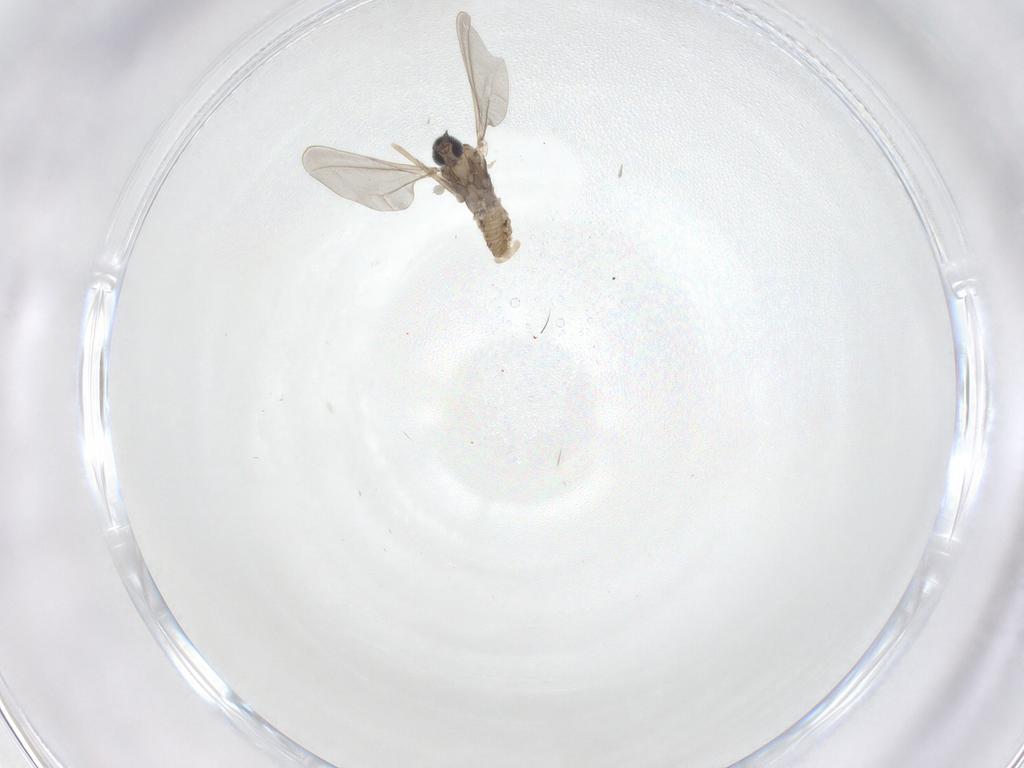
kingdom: Animalia
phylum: Arthropoda
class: Insecta
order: Diptera
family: Cecidomyiidae
